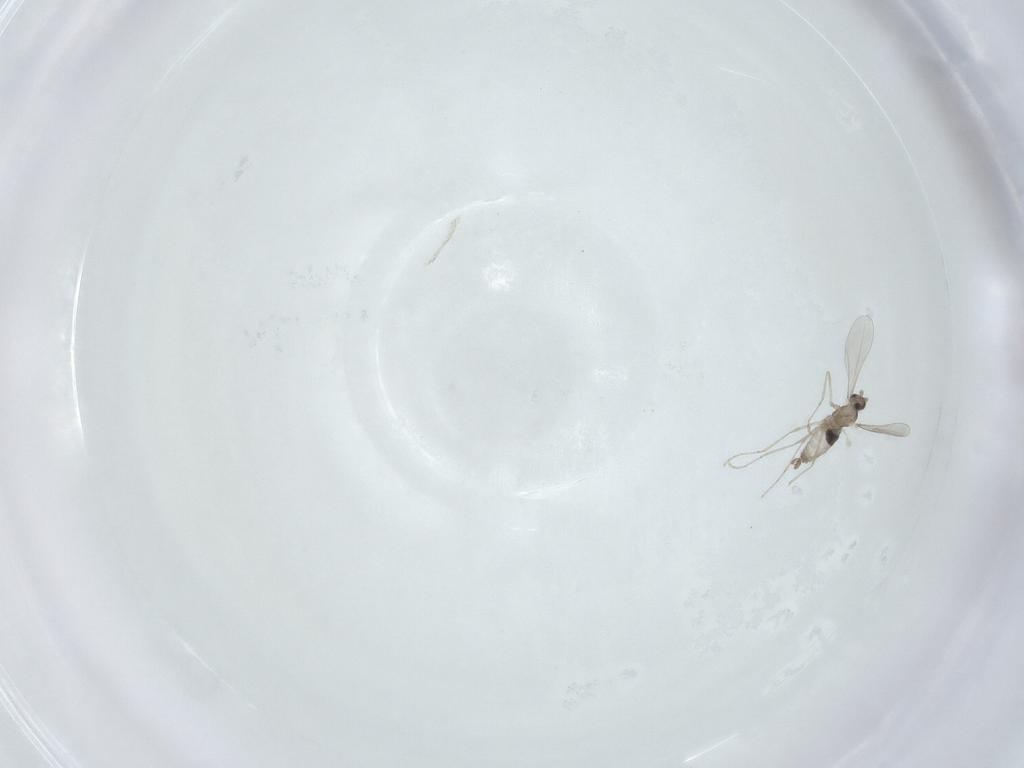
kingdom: Animalia
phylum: Arthropoda
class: Insecta
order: Diptera
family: Cecidomyiidae
